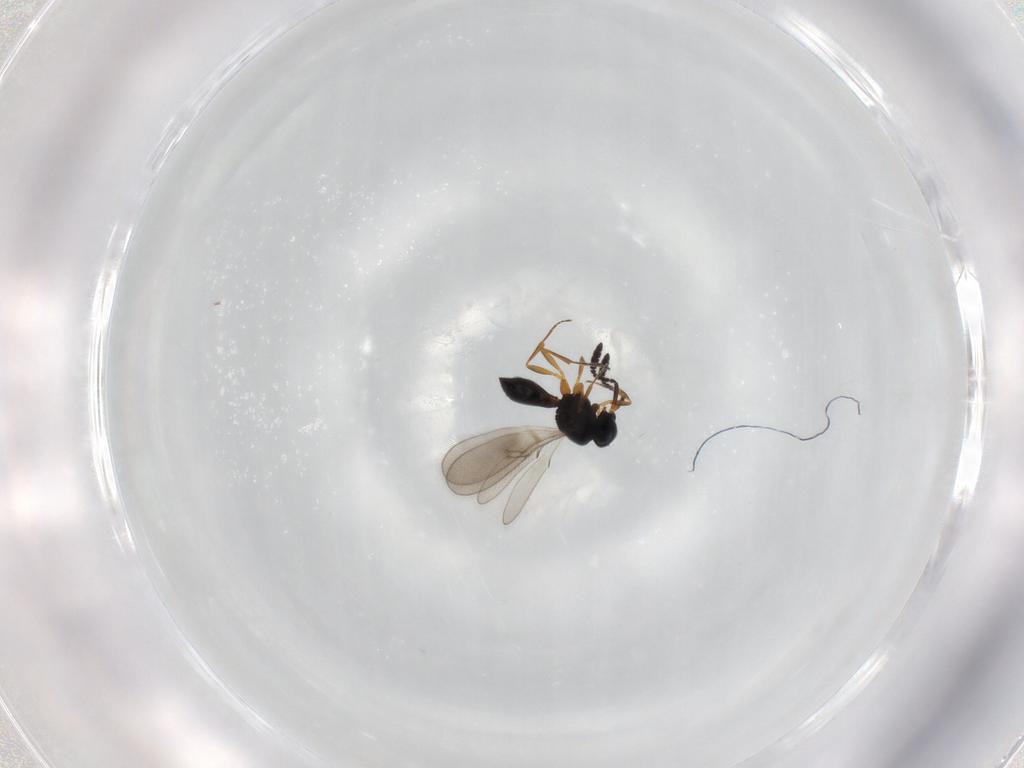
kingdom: Animalia
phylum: Arthropoda
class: Insecta
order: Hymenoptera
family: Scelionidae
